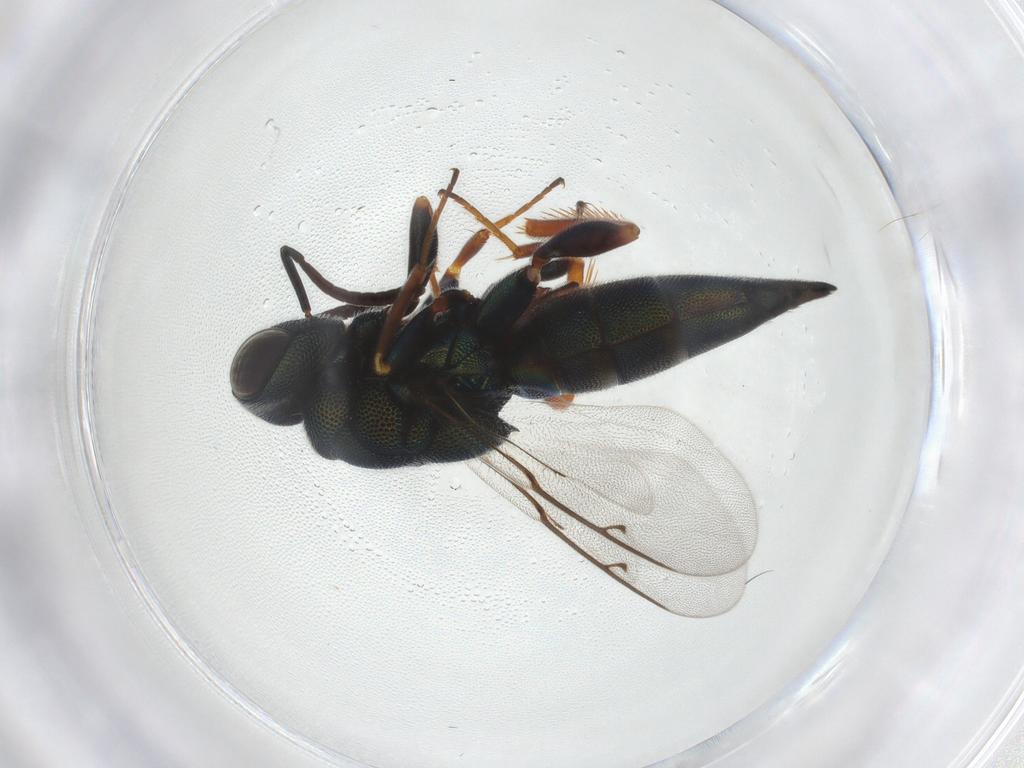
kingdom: Animalia
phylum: Arthropoda
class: Insecta
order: Hymenoptera
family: Lyciscidae
